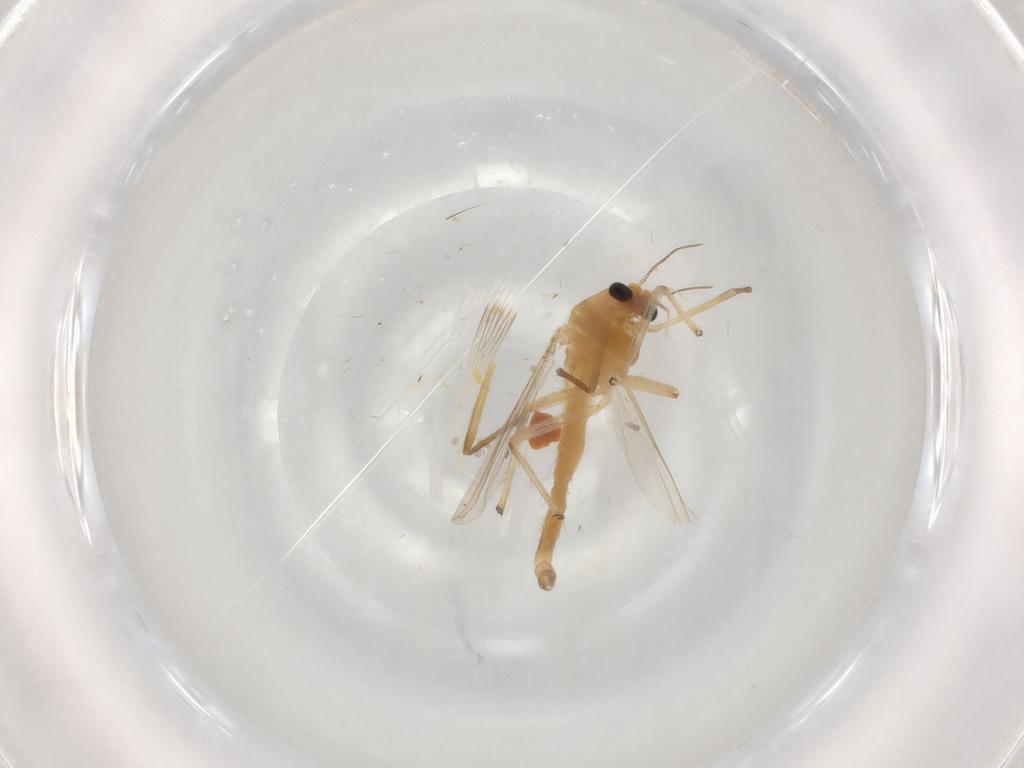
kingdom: Animalia
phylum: Arthropoda
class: Insecta
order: Diptera
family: Chironomidae
